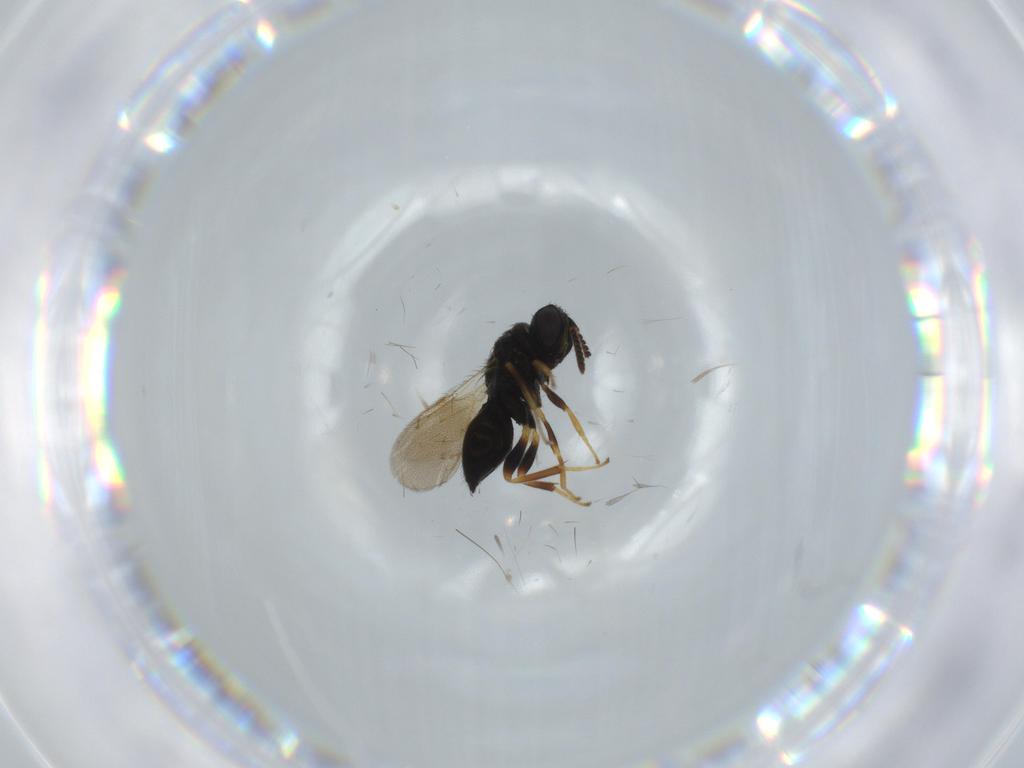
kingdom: Animalia
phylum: Arthropoda
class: Insecta
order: Hymenoptera
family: Pteromalidae
